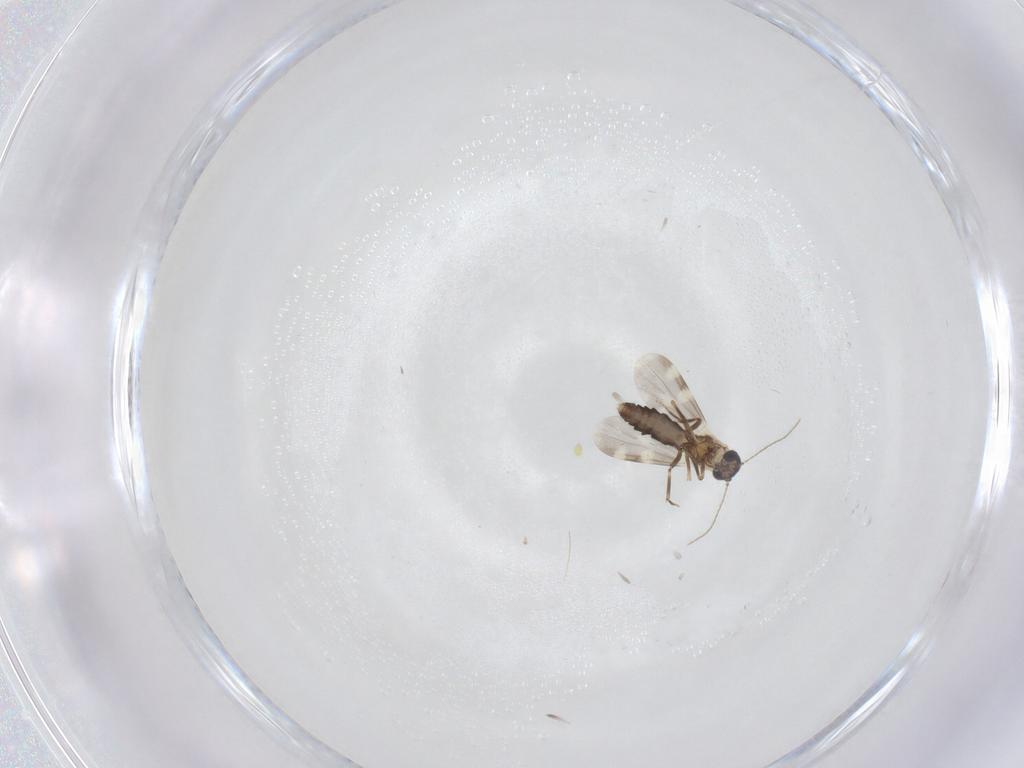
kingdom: Animalia
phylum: Arthropoda
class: Insecta
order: Diptera
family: Ceratopogonidae
